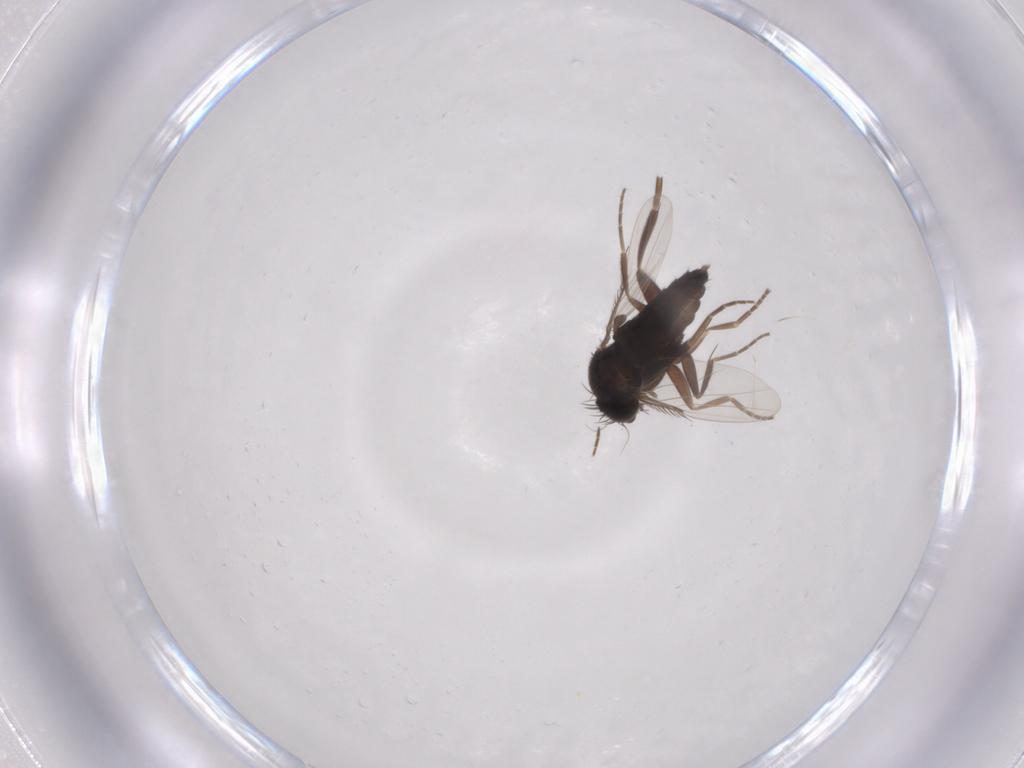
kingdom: Animalia
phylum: Arthropoda
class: Insecta
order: Diptera
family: Phoridae
